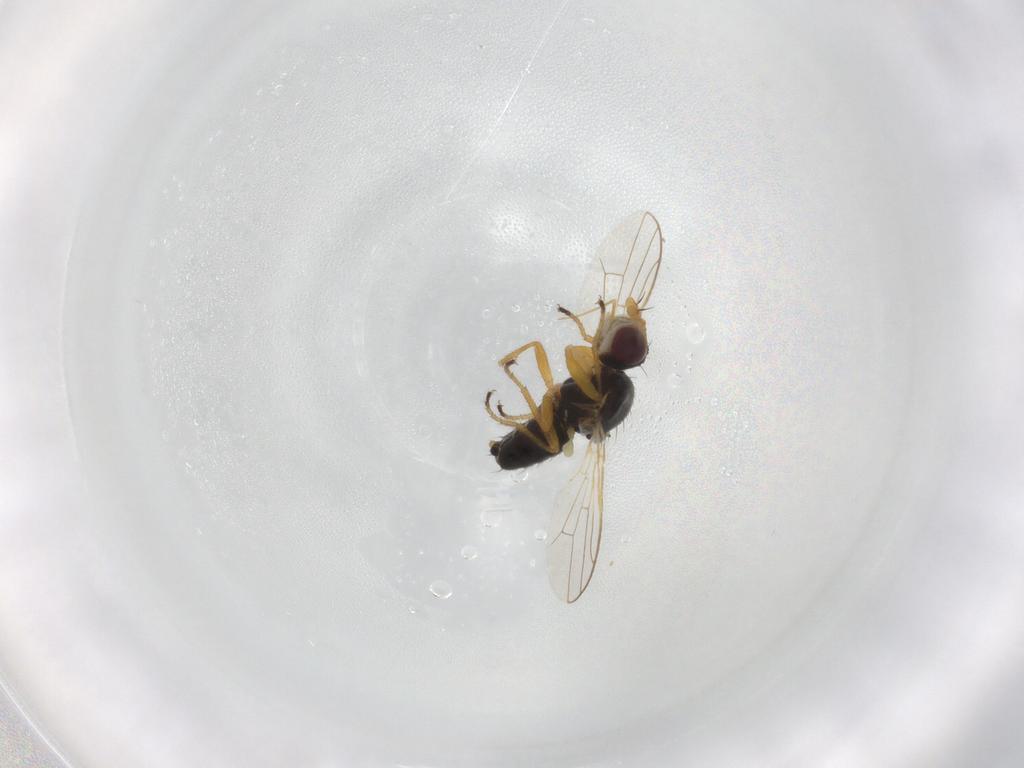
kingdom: Animalia
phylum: Arthropoda
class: Insecta
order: Diptera
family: Tephritidae
